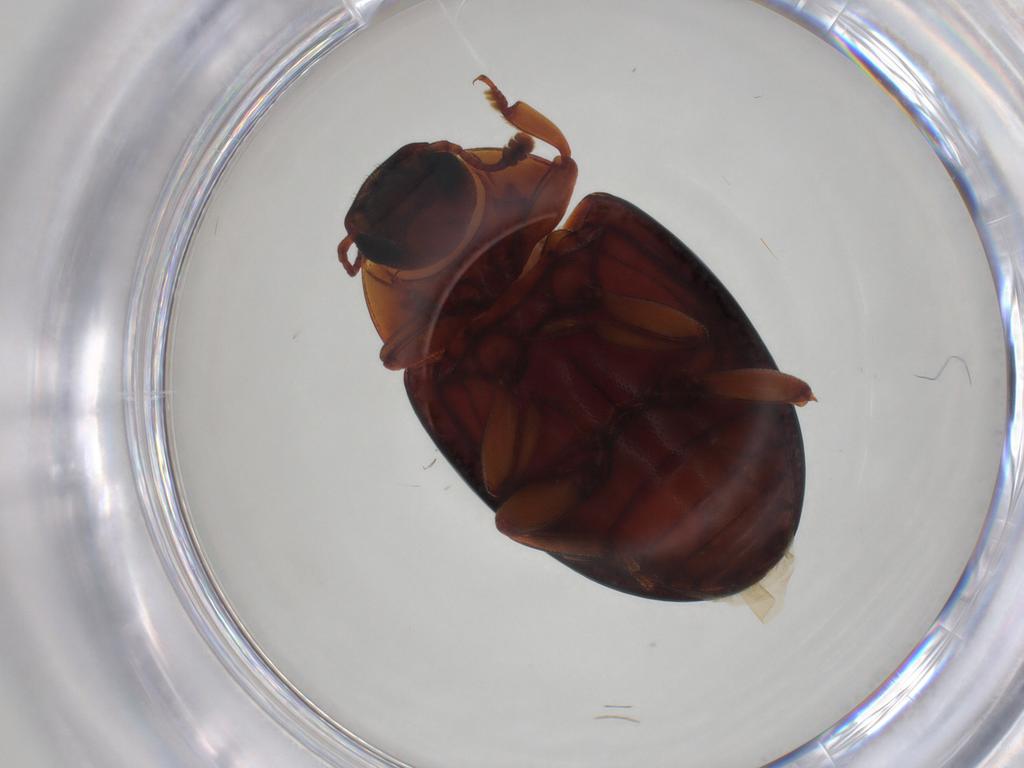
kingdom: Animalia
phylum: Arthropoda
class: Insecta
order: Coleoptera
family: Zopheridae
